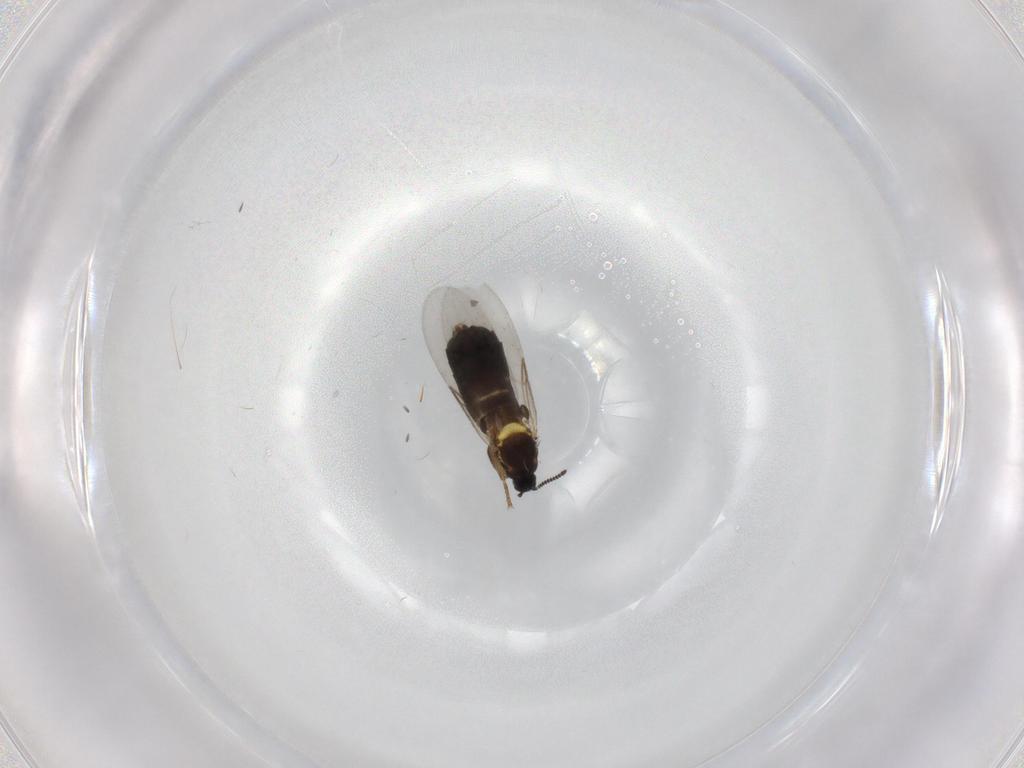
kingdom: Animalia
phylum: Arthropoda
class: Insecta
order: Diptera
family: Scatopsidae
